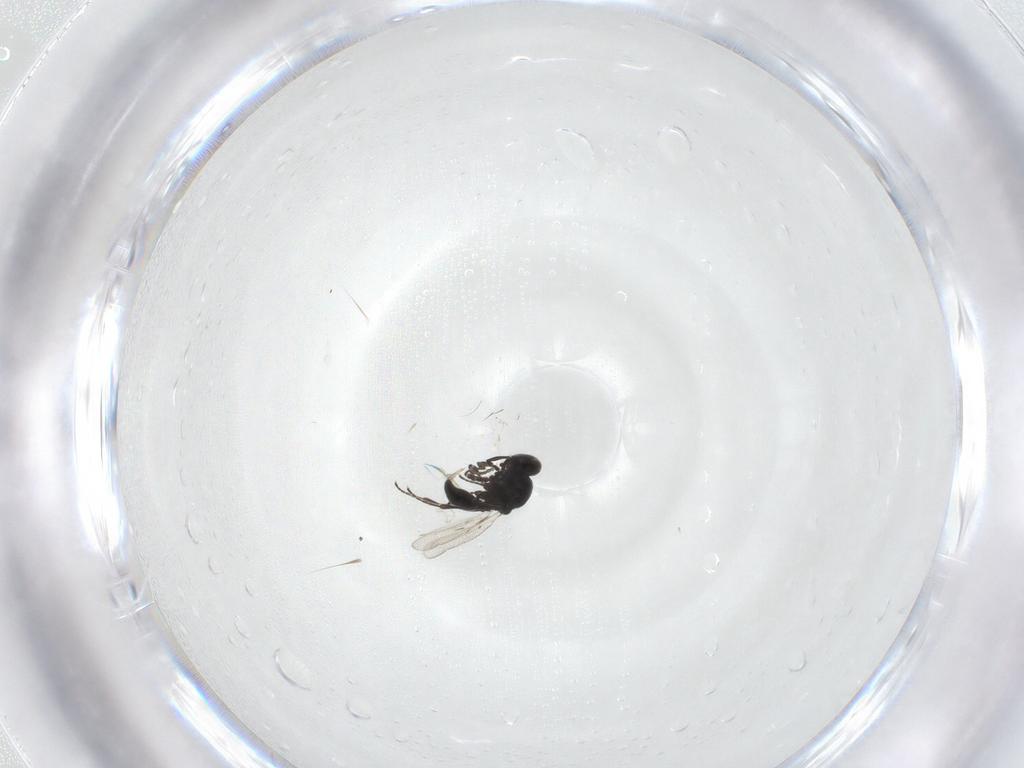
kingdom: Animalia
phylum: Arthropoda
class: Insecta
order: Diptera
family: Mythicomyiidae
